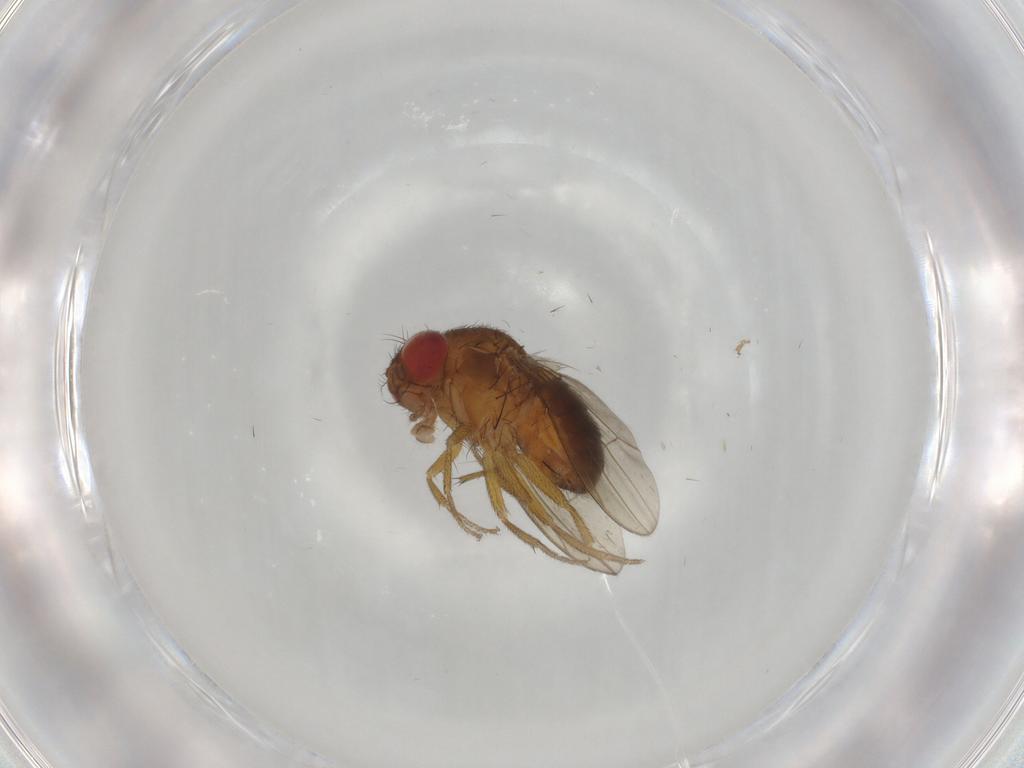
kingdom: Animalia
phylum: Arthropoda
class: Insecta
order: Diptera
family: Drosophilidae
